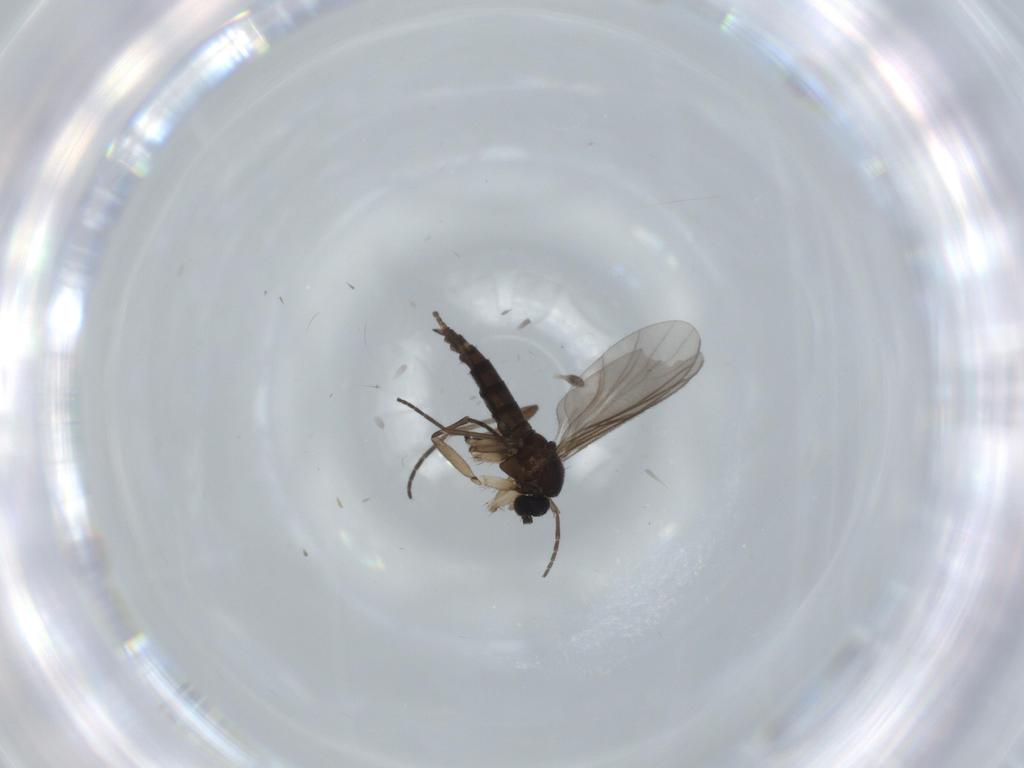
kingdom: Animalia
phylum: Arthropoda
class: Insecta
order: Diptera
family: Sciaridae
